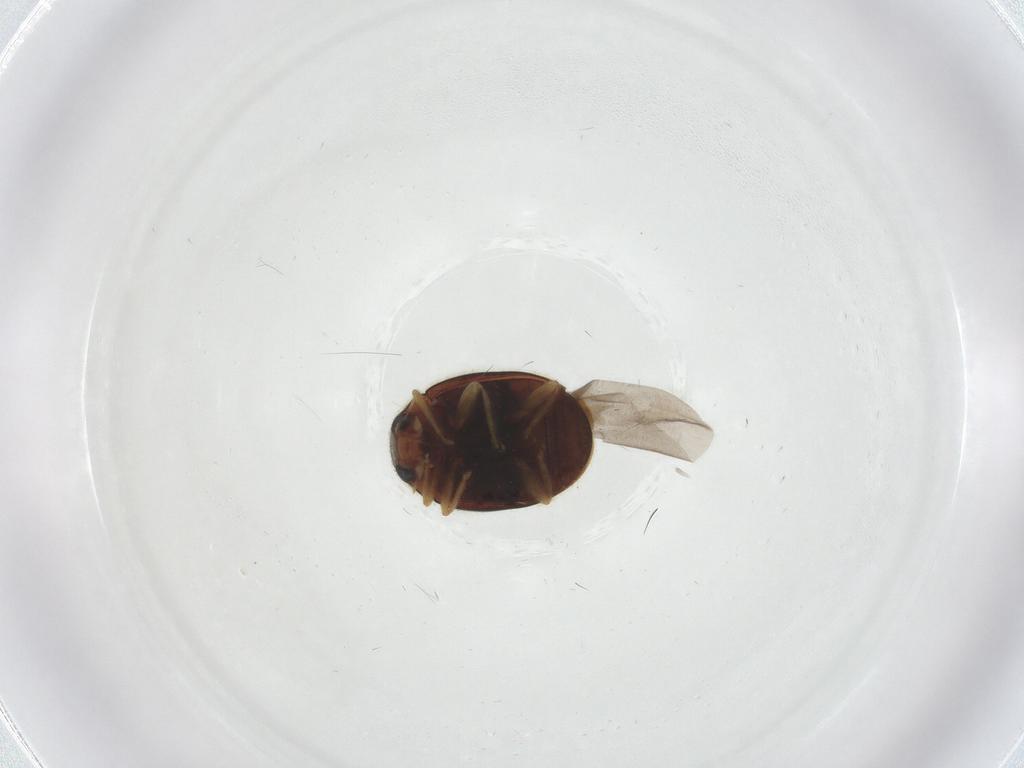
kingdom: Animalia
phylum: Arthropoda
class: Insecta
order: Coleoptera
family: Coccinellidae
